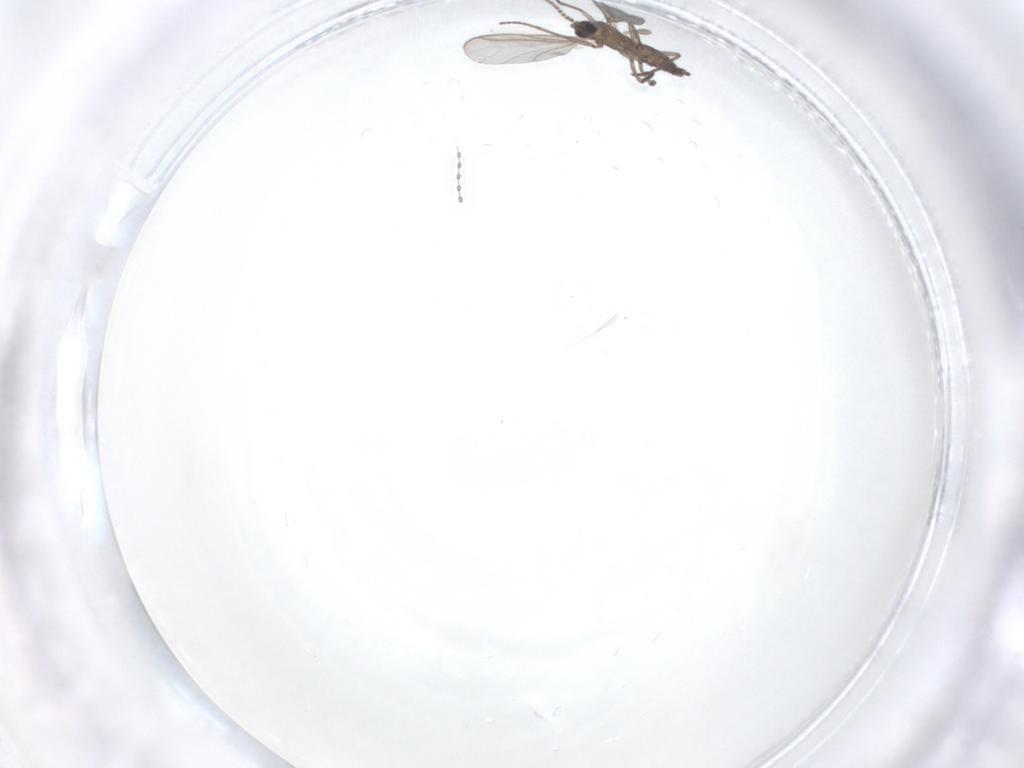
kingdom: Animalia
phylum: Arthropoda
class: Insecta
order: Diptera
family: Sciaridae
